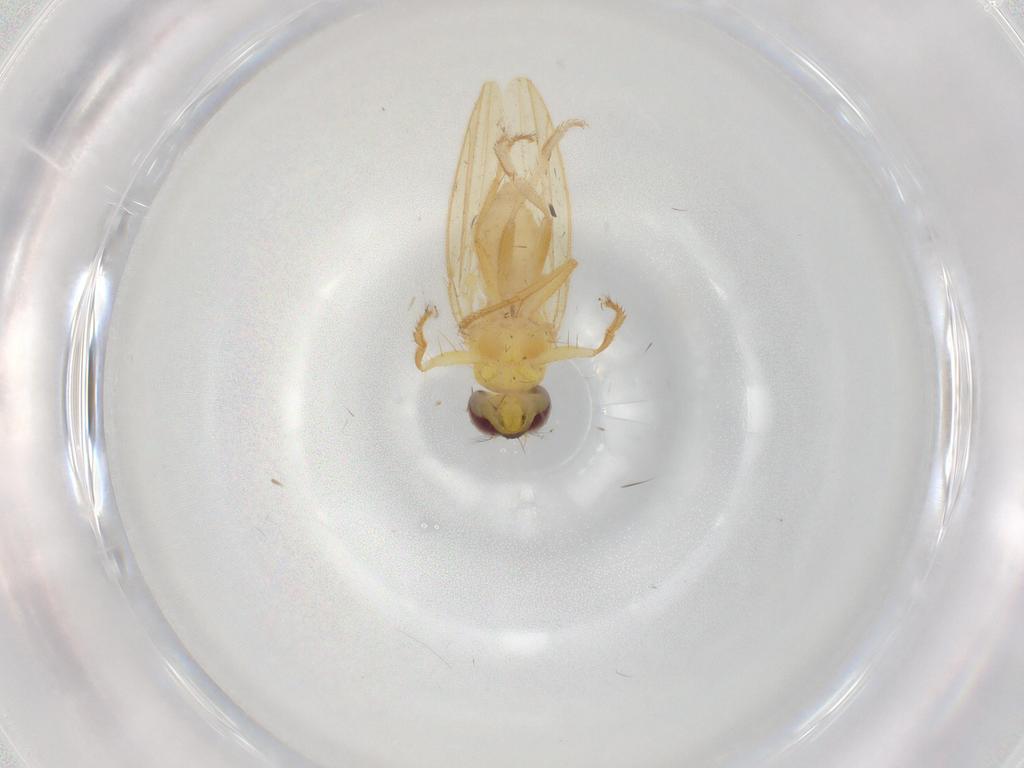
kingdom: Animalia
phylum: Arthropoda
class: Insecta
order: Diptera
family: Periscelididae
